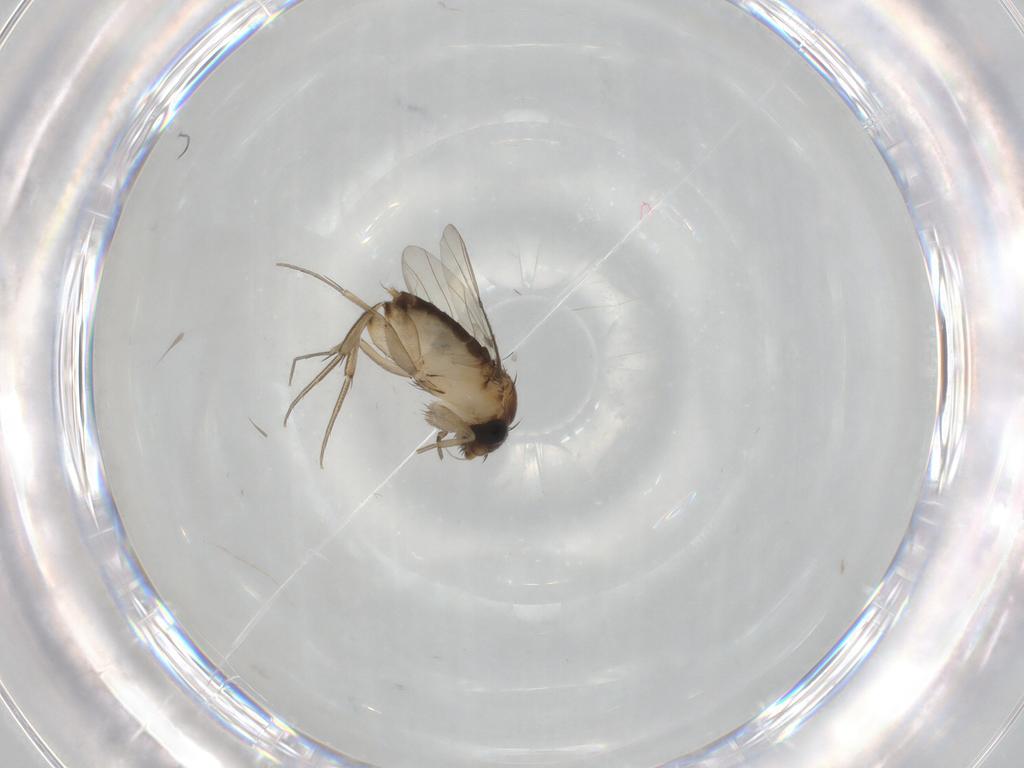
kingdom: Animalia
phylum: Arthropoda
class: Insecta
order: Diptera
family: Phoridae
